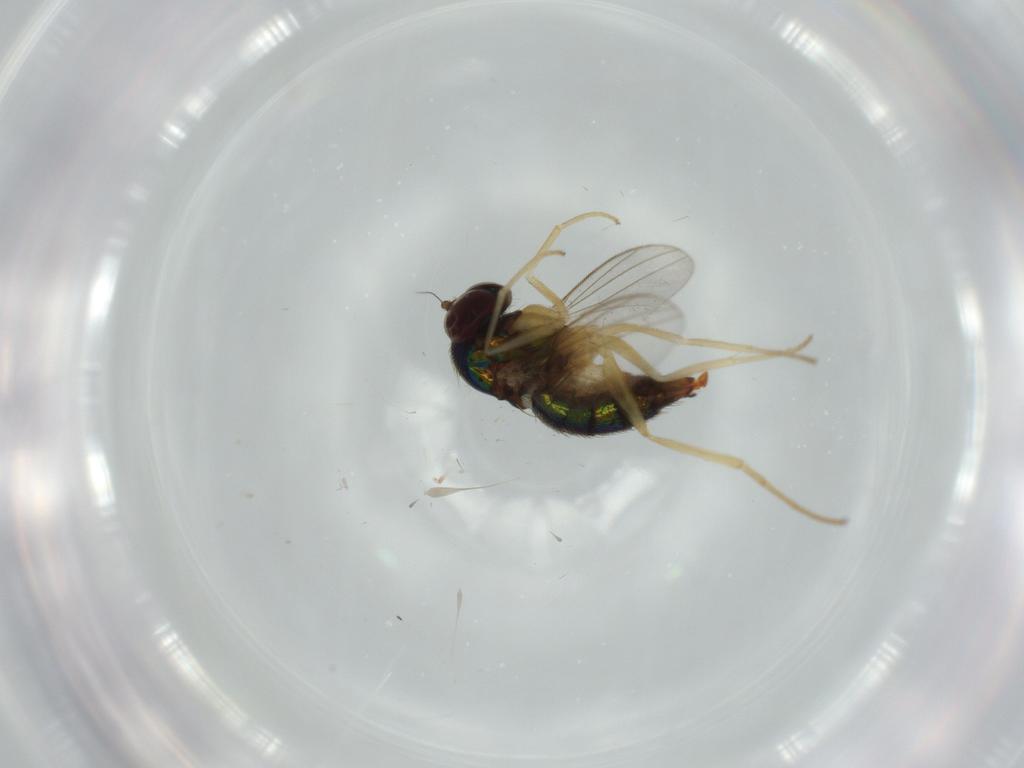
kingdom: Animalia
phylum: Arthropoda
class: Insecta
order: Diptera
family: Dolichopodidae
